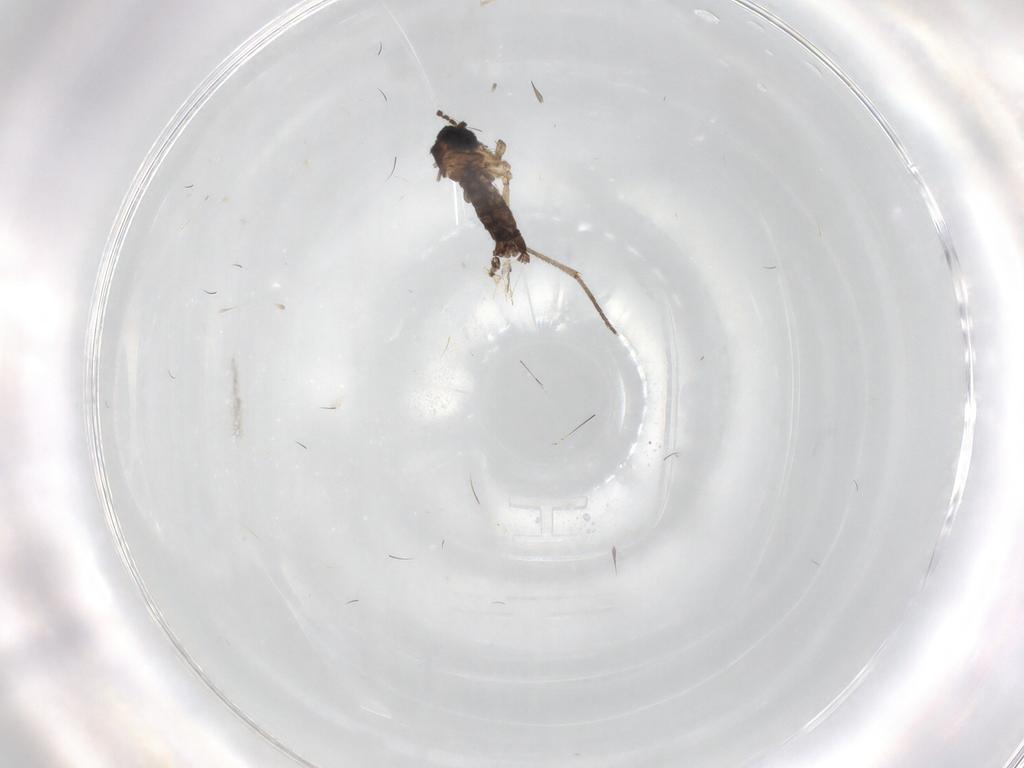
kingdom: Animalia
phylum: Arthropoda
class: Insecta
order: Diptera
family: Sciaridae
